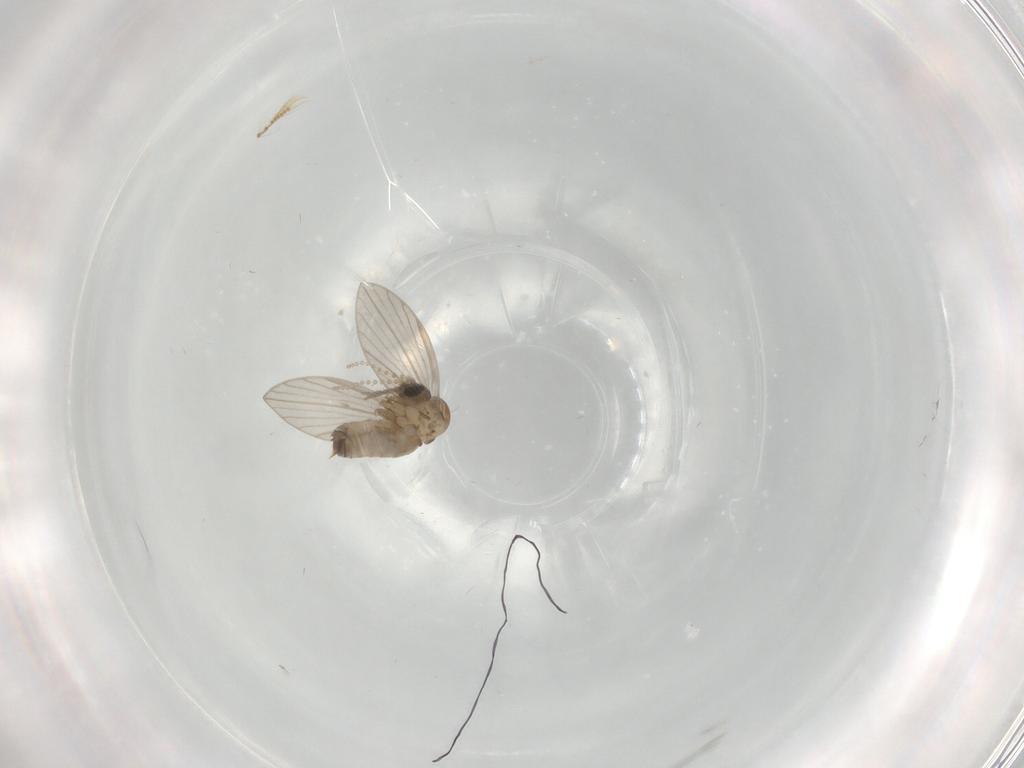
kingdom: Animalia
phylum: Arthropoda
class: Insecta
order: Diptera
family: Psychodidae
